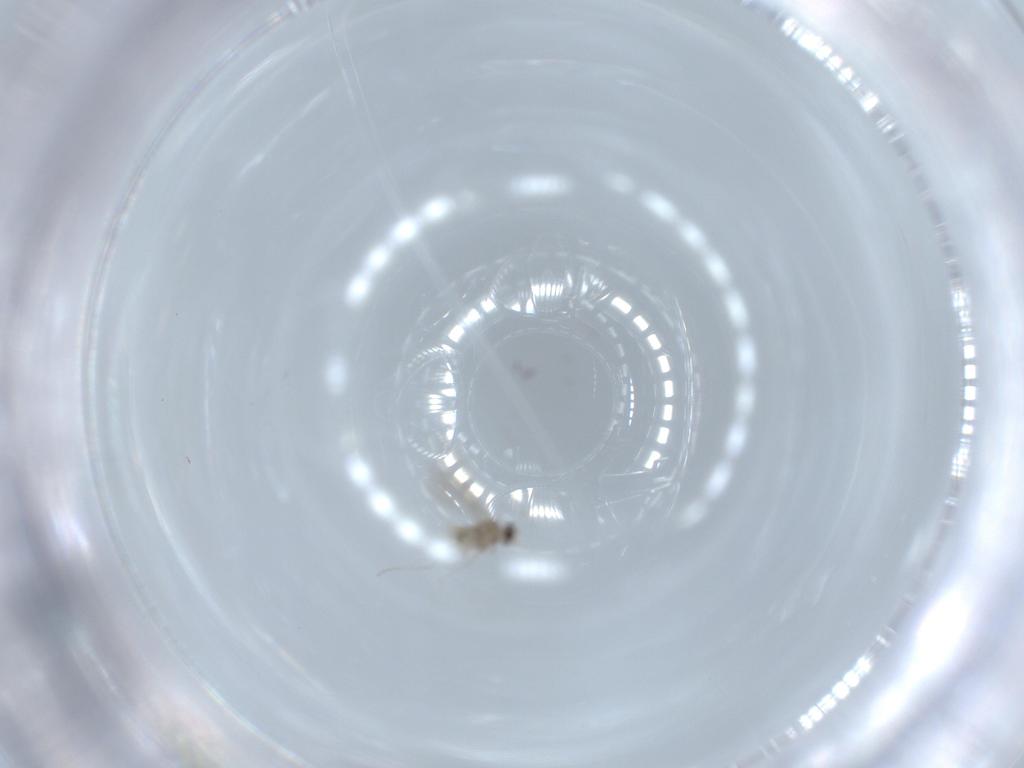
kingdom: Animalia
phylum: Arthropoda
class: Insecta
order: Diptera
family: Cecidomyiidae
